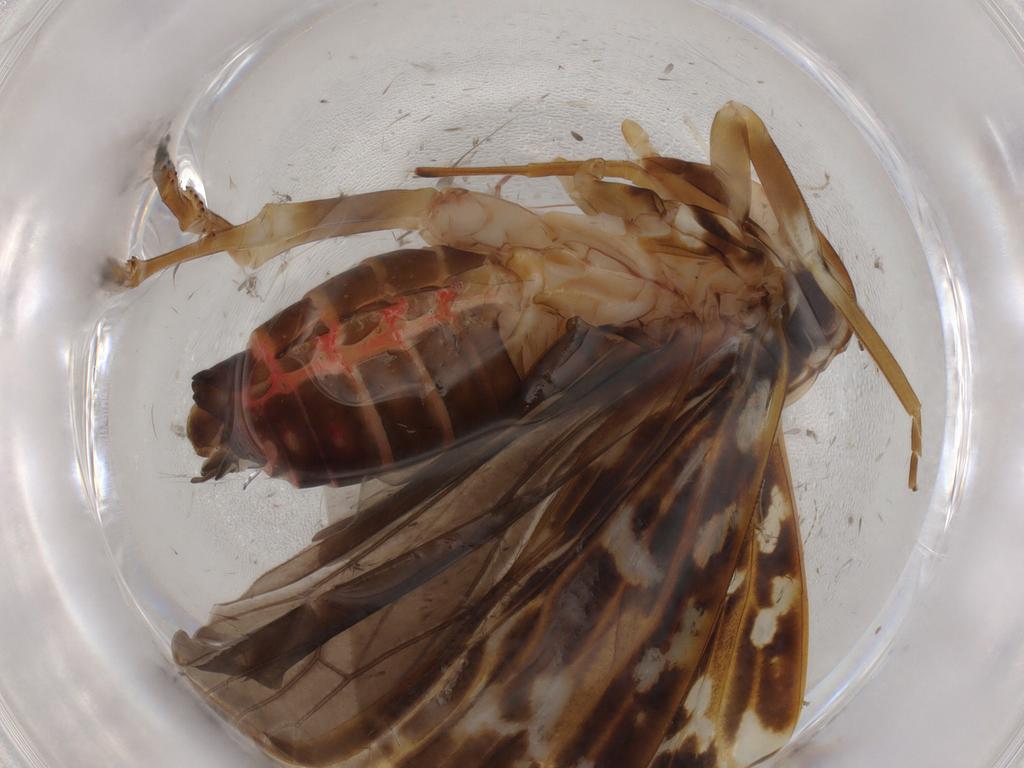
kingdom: Animalia
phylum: Arthropoda
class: Insecta
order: Hemiptera
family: Achilidae
